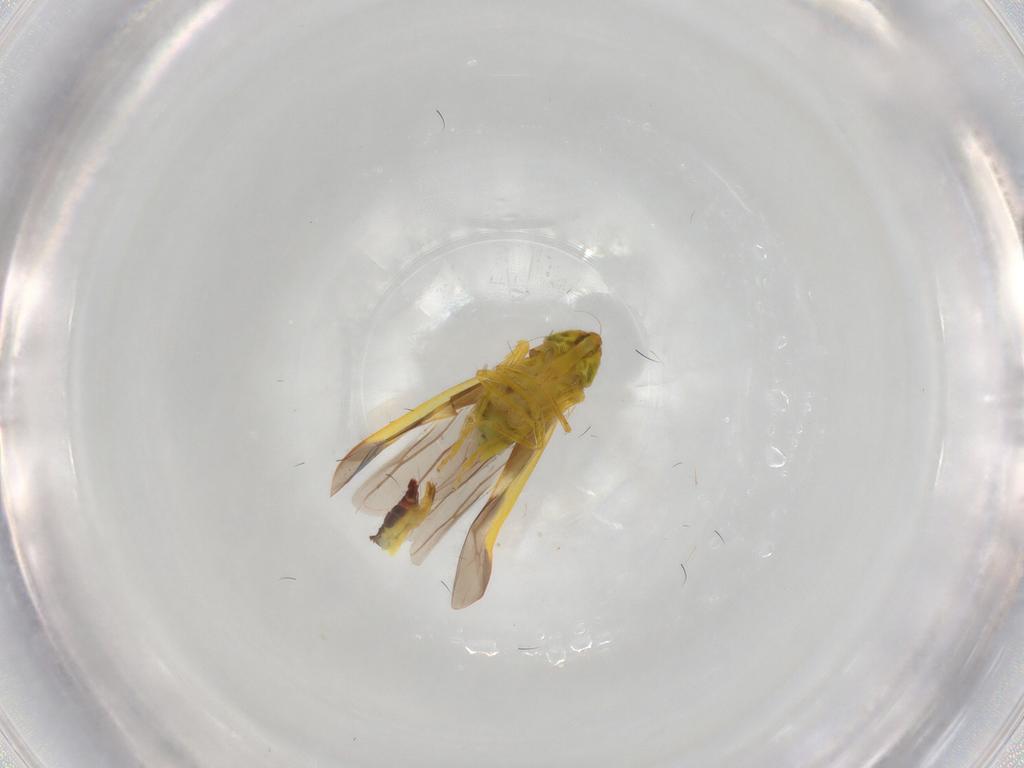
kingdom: Animalia
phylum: Arthropoda
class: Insecta
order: Hemiptera
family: Cicadellidae
